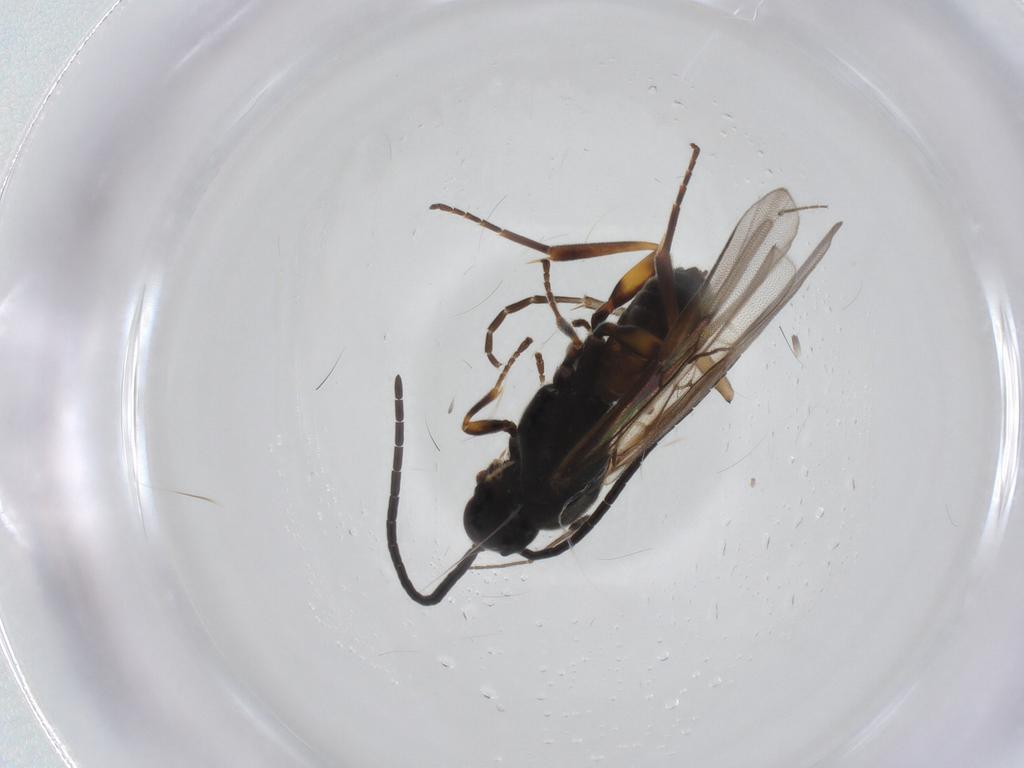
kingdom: Animalia
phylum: Arthropoda
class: Insecta
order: Hymenoptera
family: Braconidae
